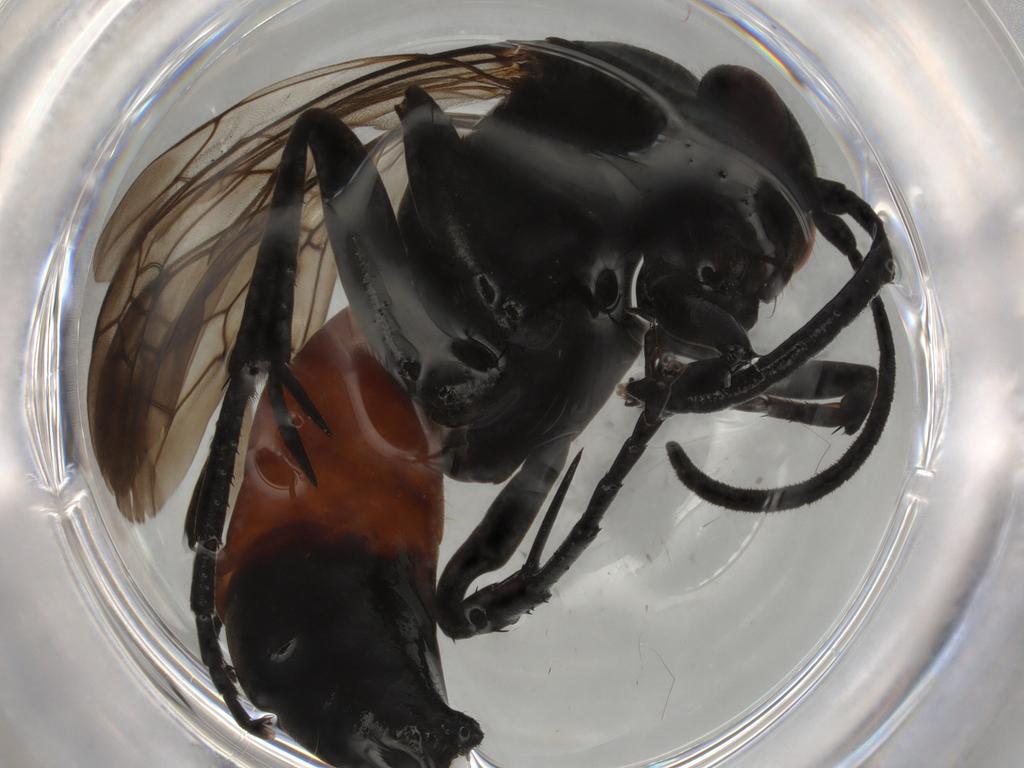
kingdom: Animalia
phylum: Arthropoda
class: Insecta
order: Hymenoptera
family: Pompilidae
